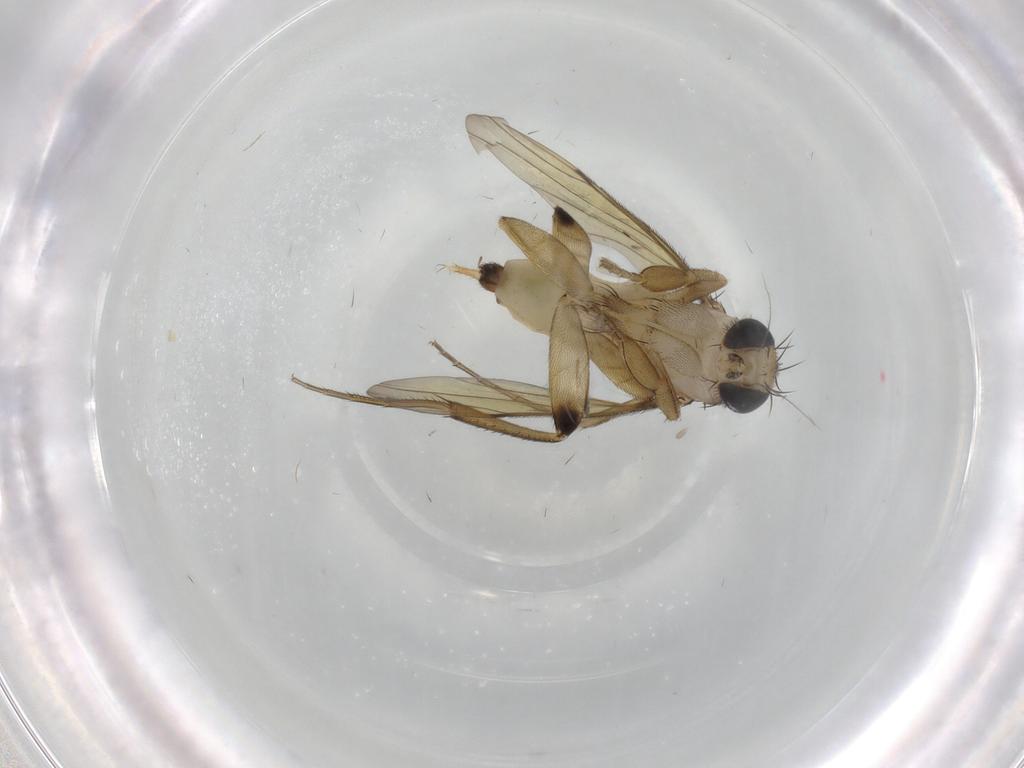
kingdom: Animalia
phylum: Arthropoda
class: Insecta
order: Diptera
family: Phoridae
